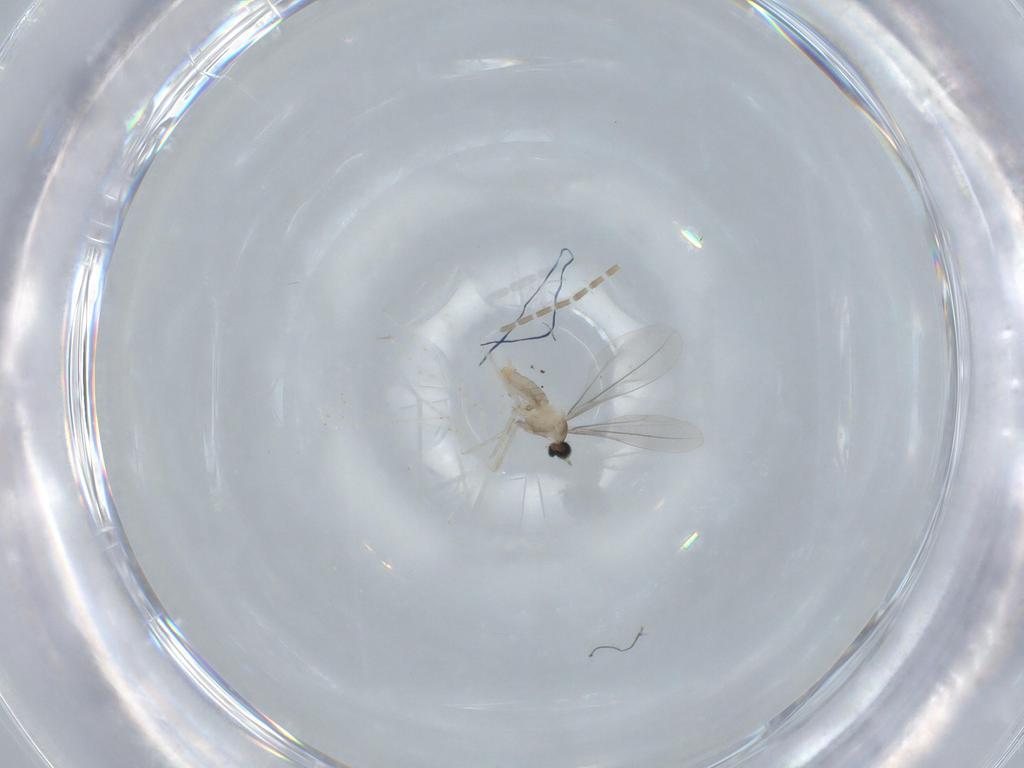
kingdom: Animalia
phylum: Arthropoda
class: Insecta
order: Diptera
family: Cecidomyiidae
